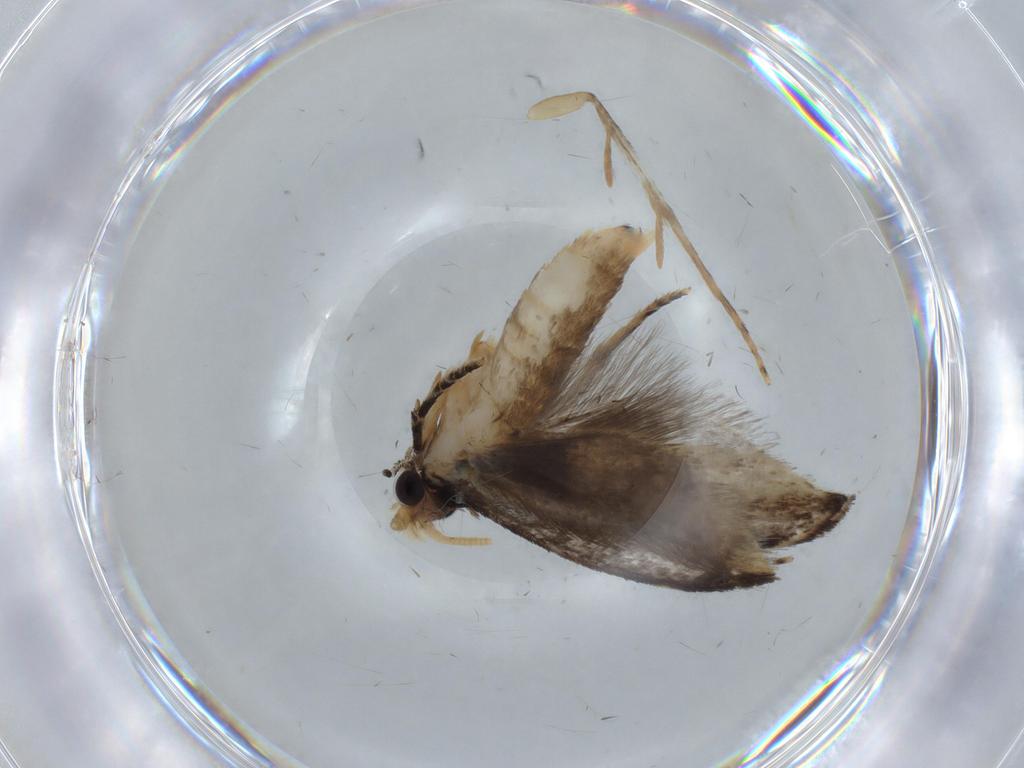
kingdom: Animalia
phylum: Arthropoda
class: Insecta
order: Lepidoptera
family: Tineidae
